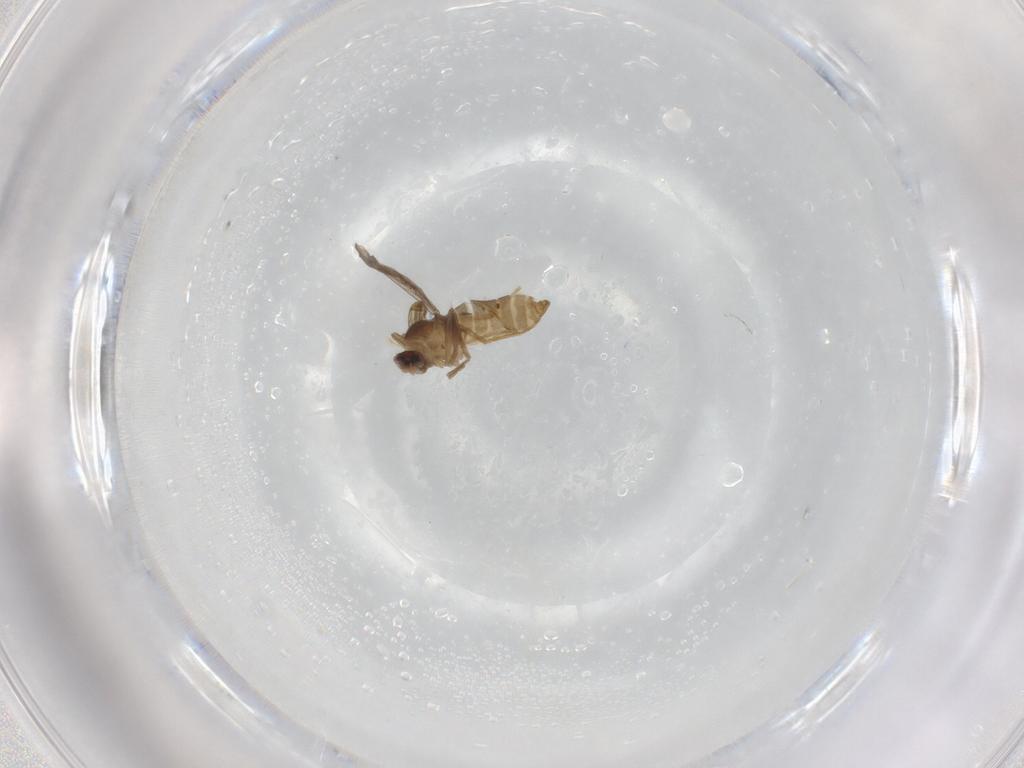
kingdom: Animalia
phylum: Arthropoda
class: Insecta
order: Diptera
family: Cecidomyiidae
